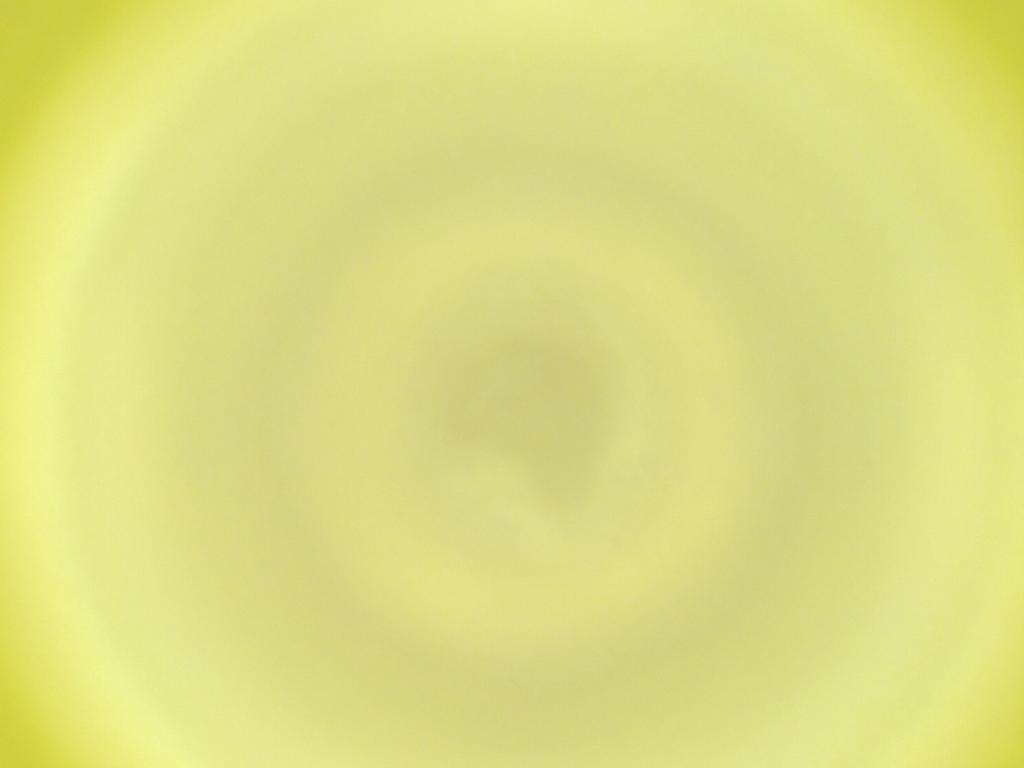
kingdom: Animalia
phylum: Arthropoda
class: Insecta
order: Diptera
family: Cecidomyiidae
